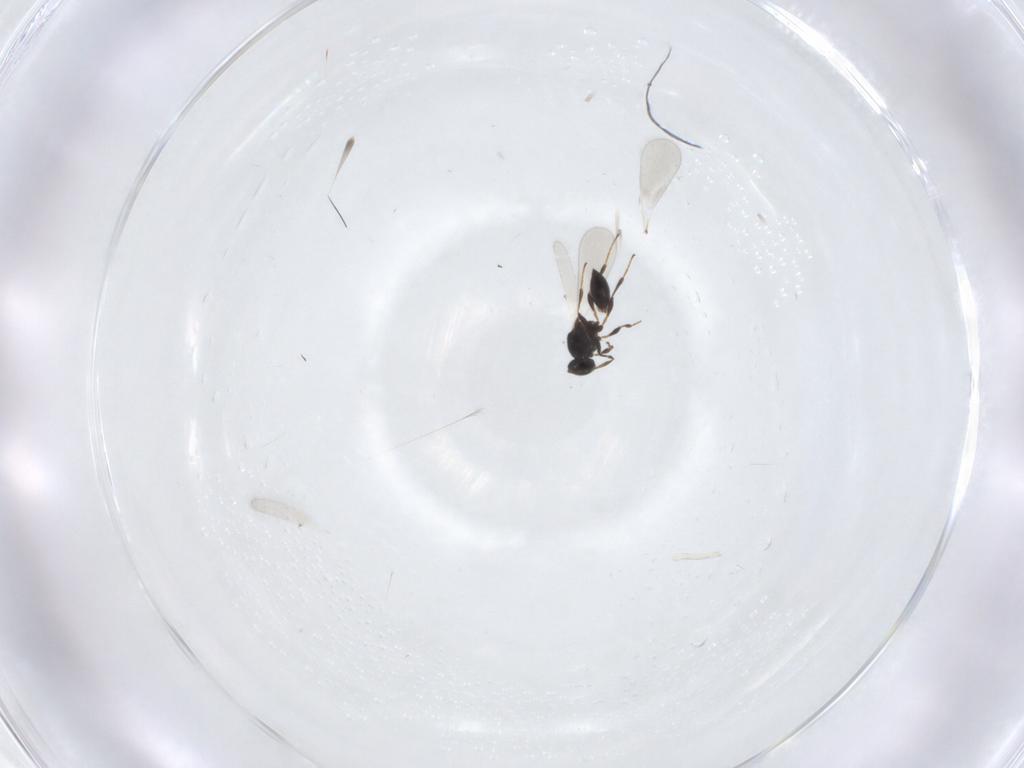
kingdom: Animalia
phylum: Arthropoda
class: Insecta
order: Hymenoptera
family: Platygastridae
